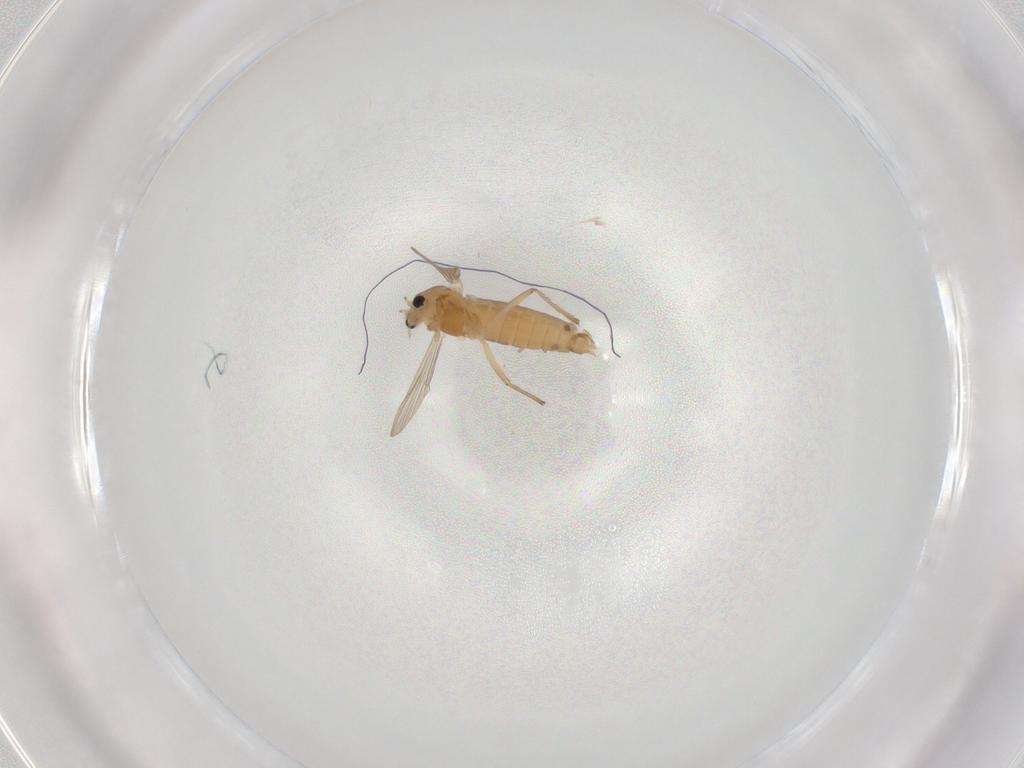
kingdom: Animalia
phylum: Arthropoda
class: Insecta
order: Diptera
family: Chironomidae
